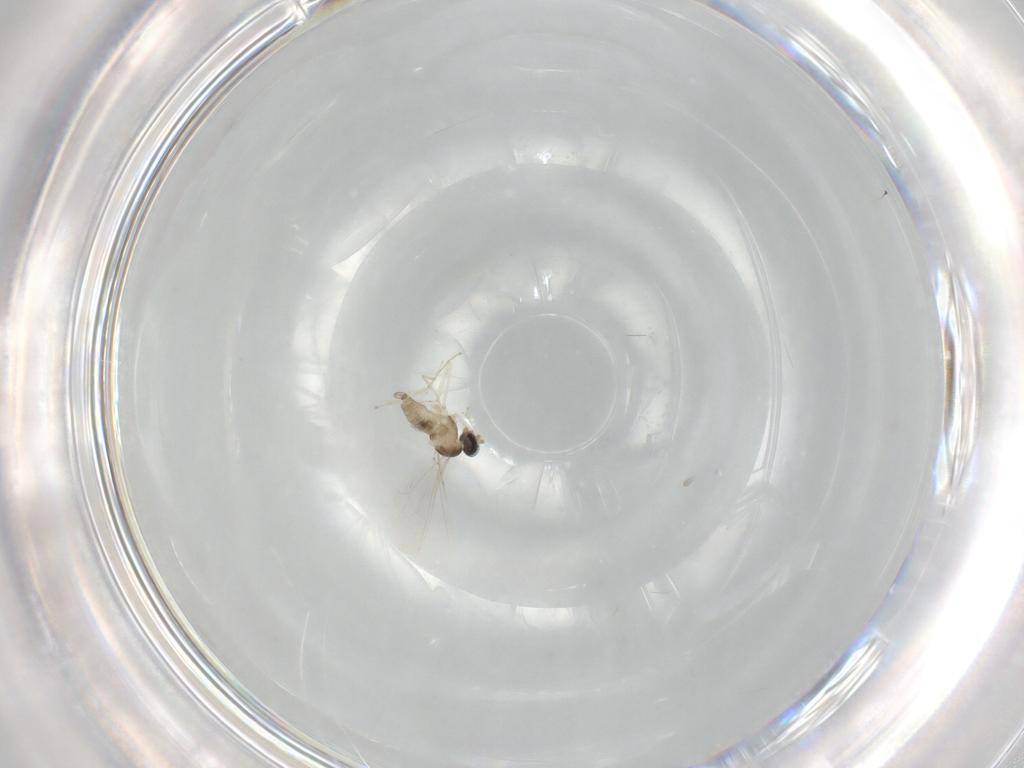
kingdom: Animalia
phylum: Arthropoda
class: Insecta
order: Diptera
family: Cecidomyiidae
